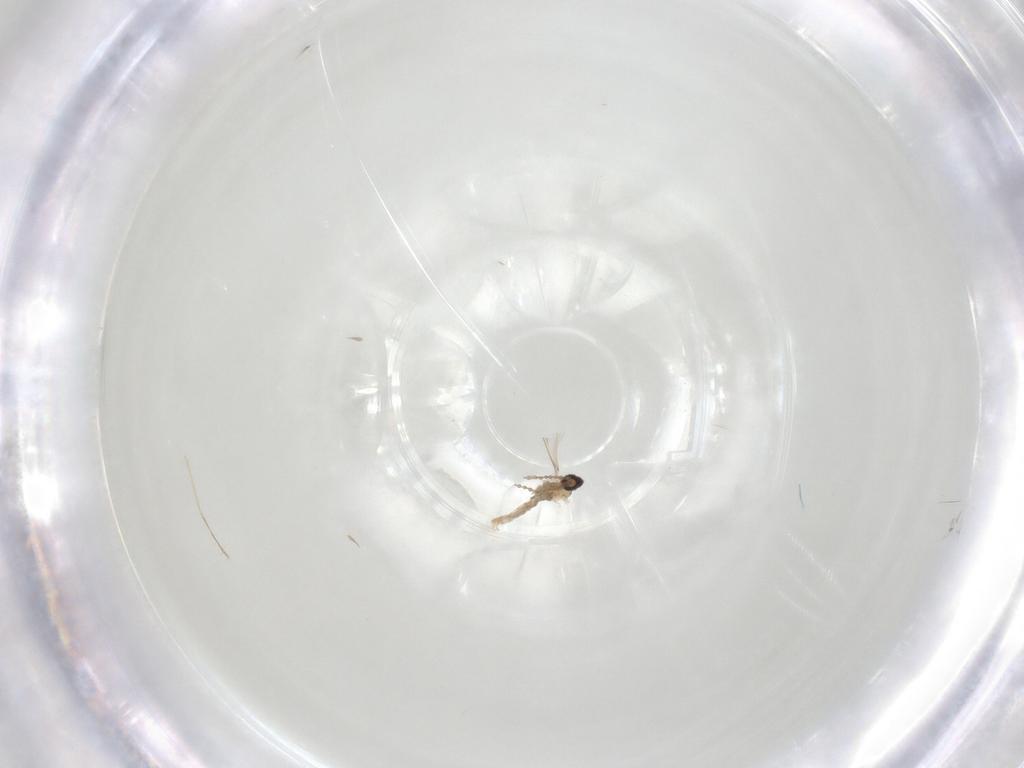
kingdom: Animalia
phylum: Arthropoda
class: Insecta
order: Diptera
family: Cecidomyiidae
